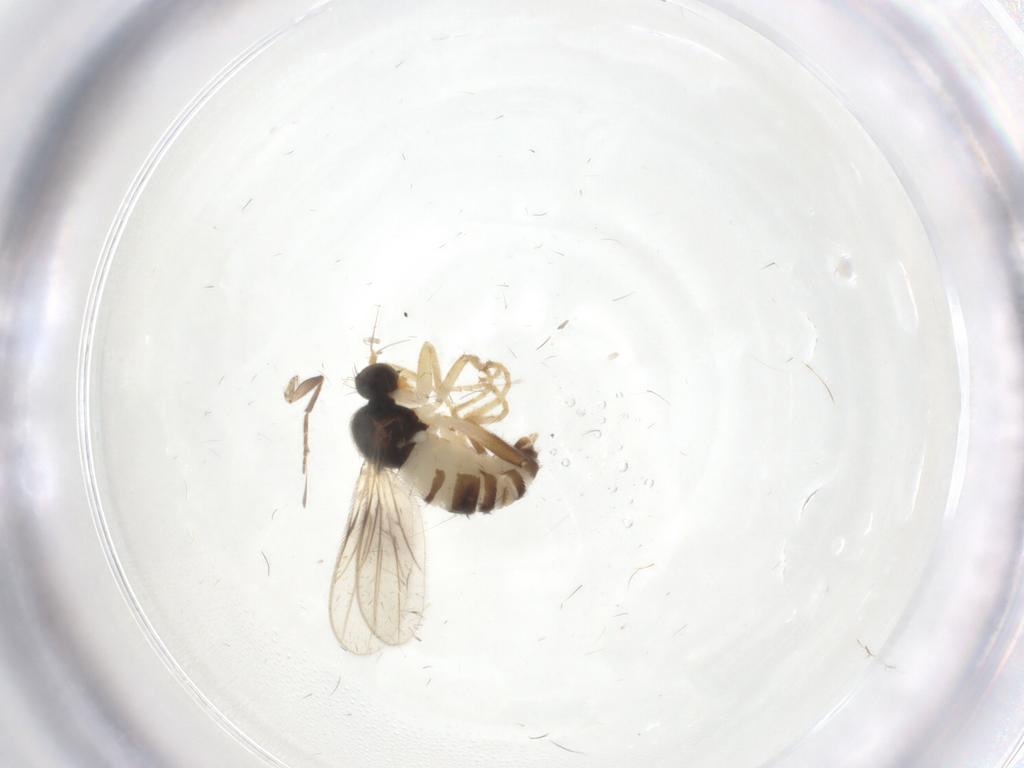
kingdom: Animalia
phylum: Arthropoda
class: Insecta
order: Diptera
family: Hybotidae
